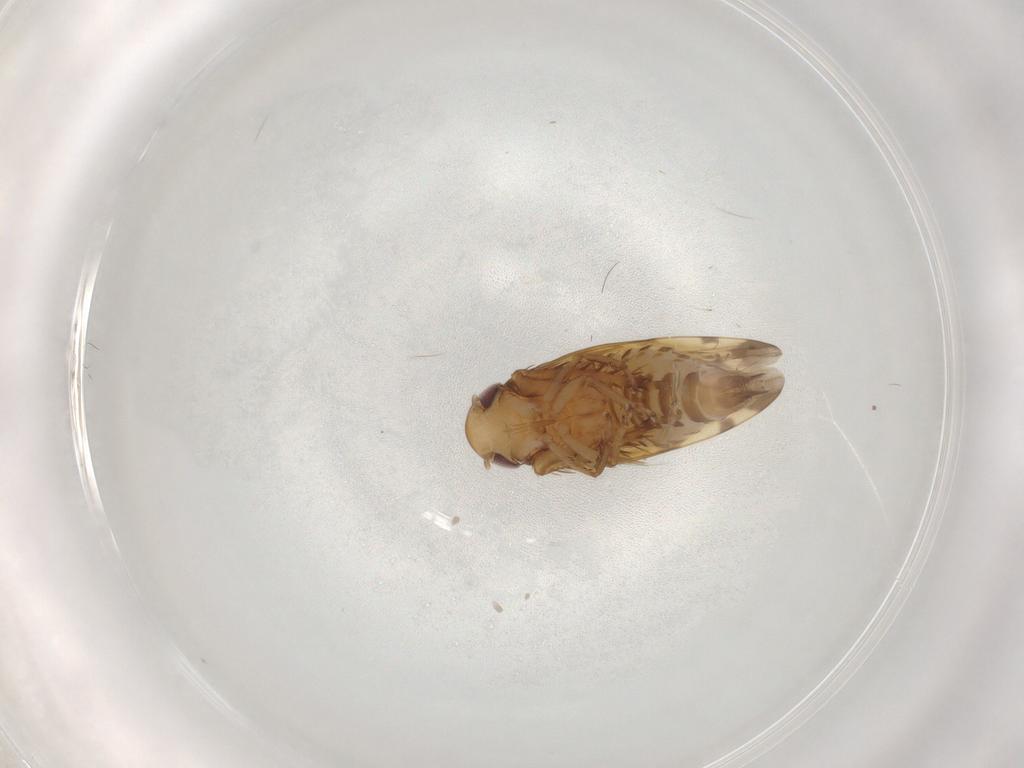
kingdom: Animalia
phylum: Arthropoda
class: Insecta
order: Hemiptera
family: Cicadellidae
